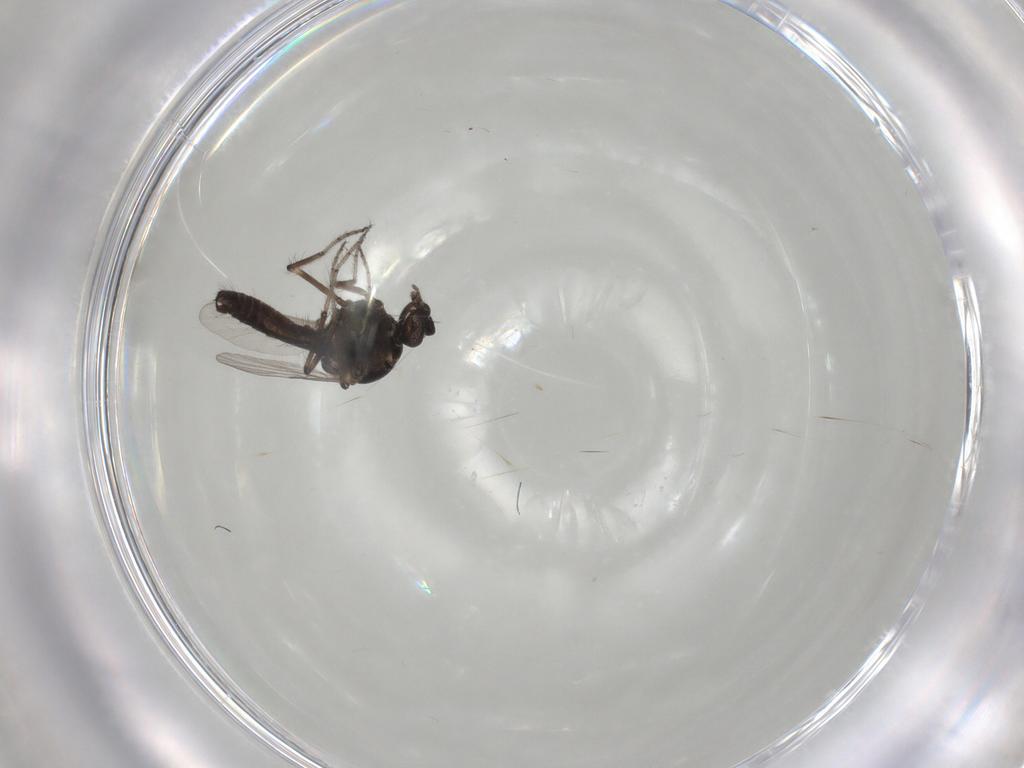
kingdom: Animalia
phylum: Arthropoda
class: Insecta
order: Diptera
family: Ceratopogonidae
